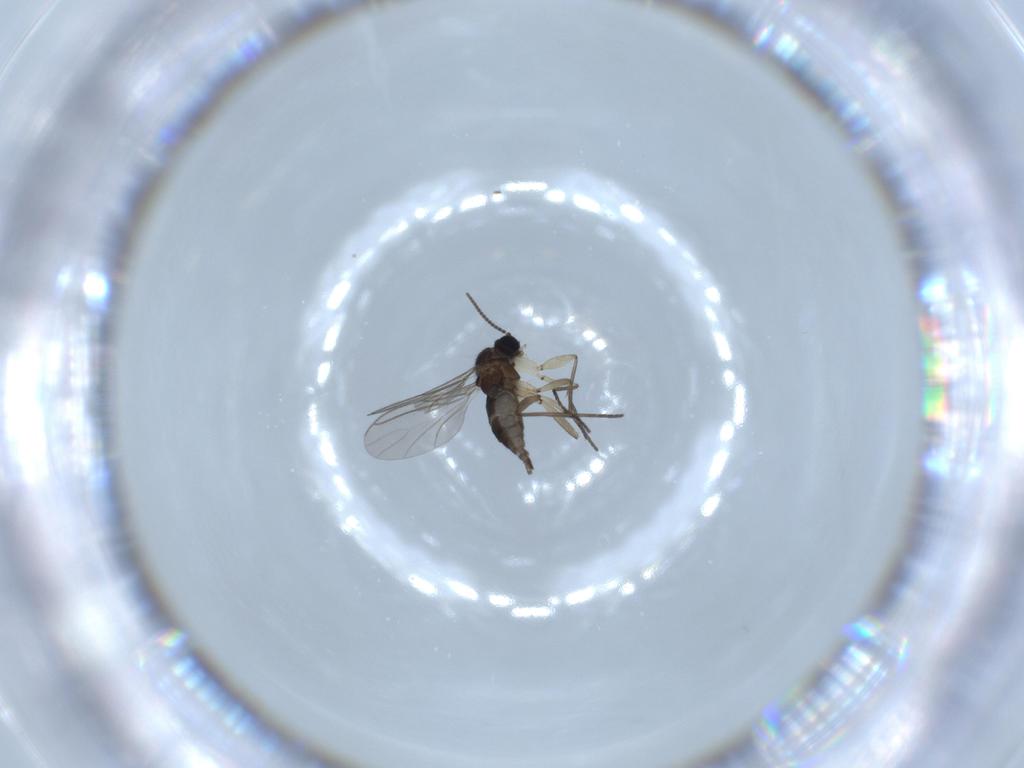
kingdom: Animalia
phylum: Arthropoda
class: Insecta
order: Diptera
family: Sciaridae
